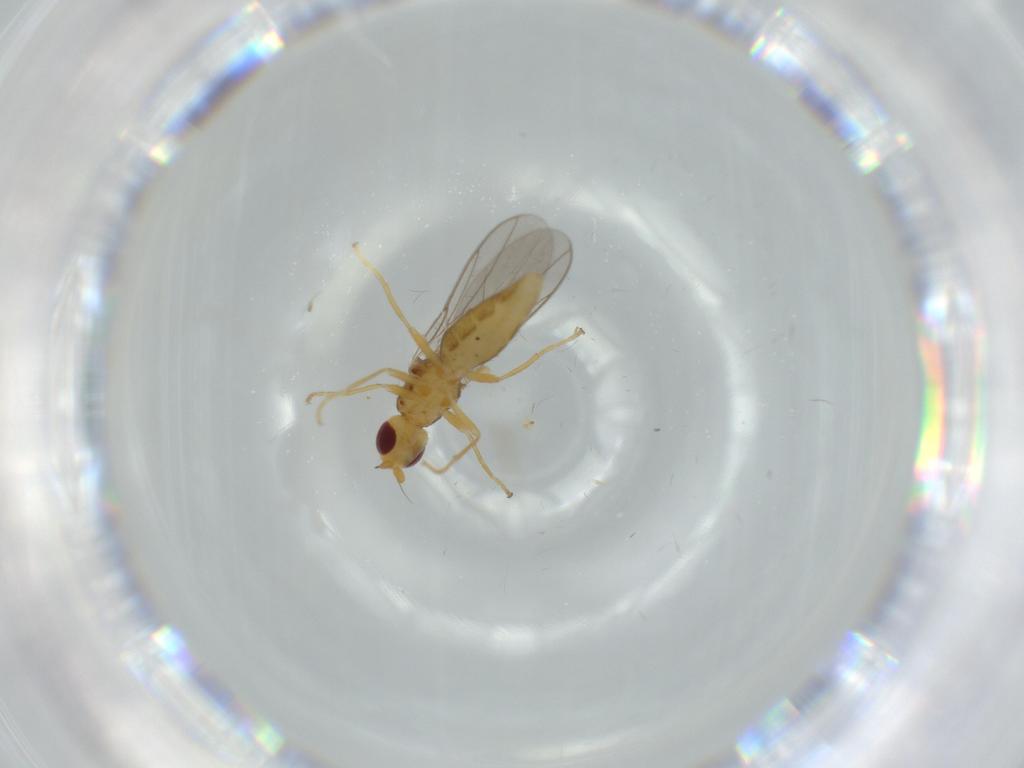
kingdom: Animalia
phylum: Arthropoda
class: Insecta
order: Diptera
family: Chloropidae
